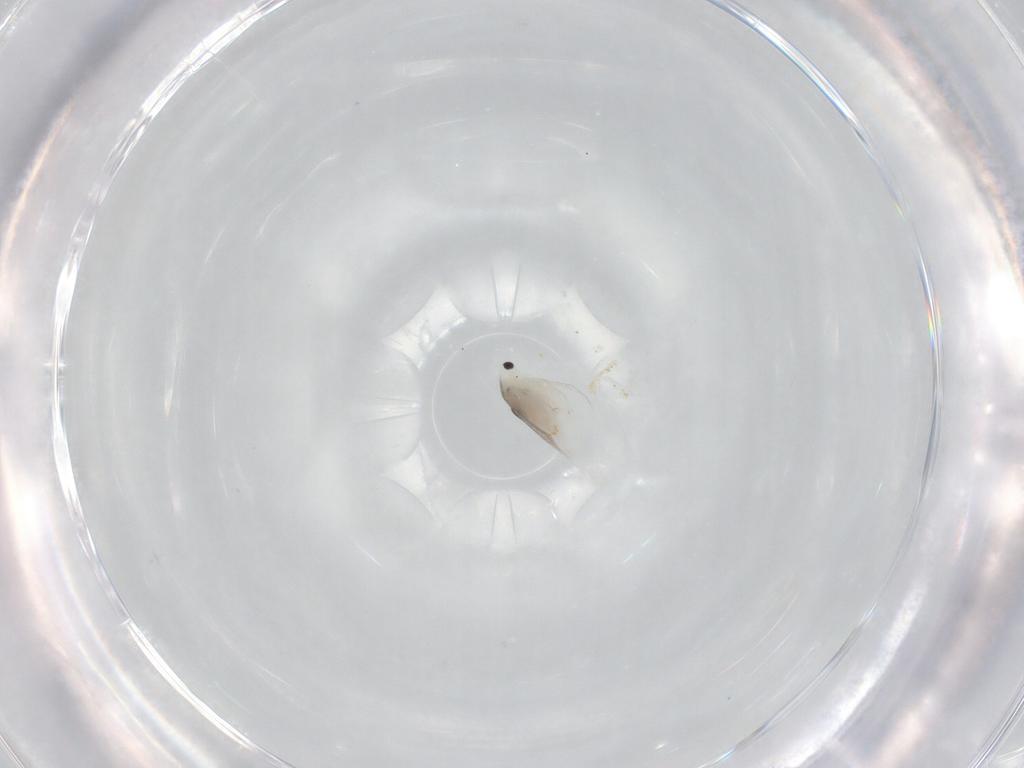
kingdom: Animalia
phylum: Arthropoda
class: Branchiopoda
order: Diplostraca
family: Daphniidae
